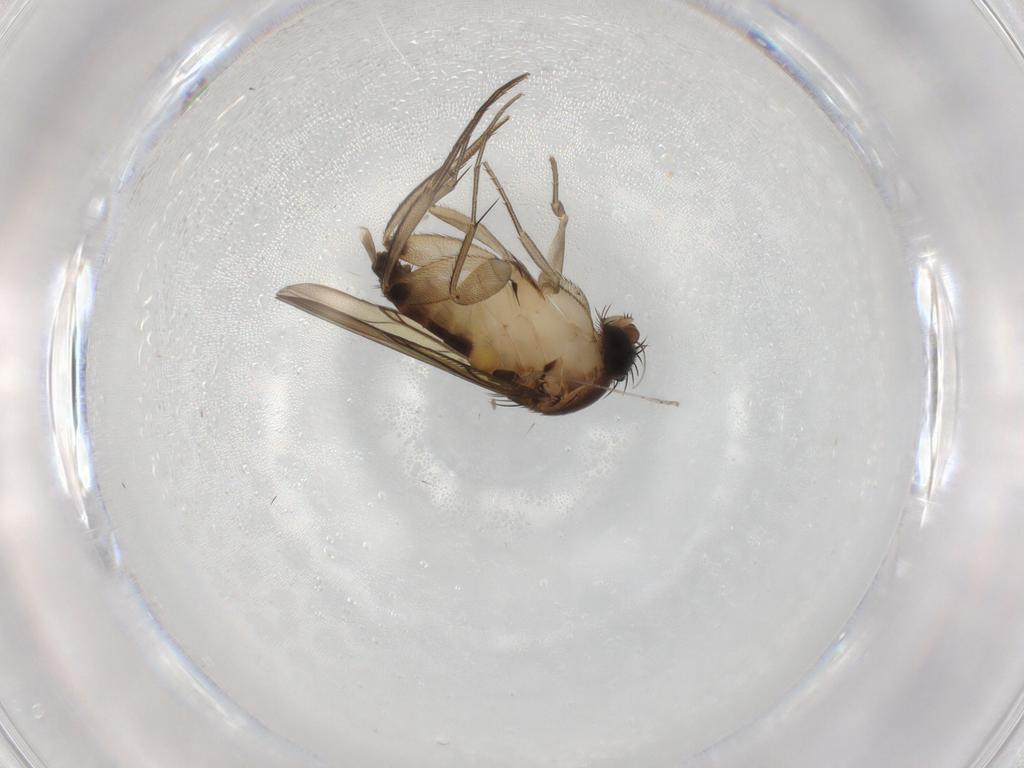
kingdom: Animalia
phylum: Arthropoda
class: Insecta
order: Diptera
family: Phoridae
